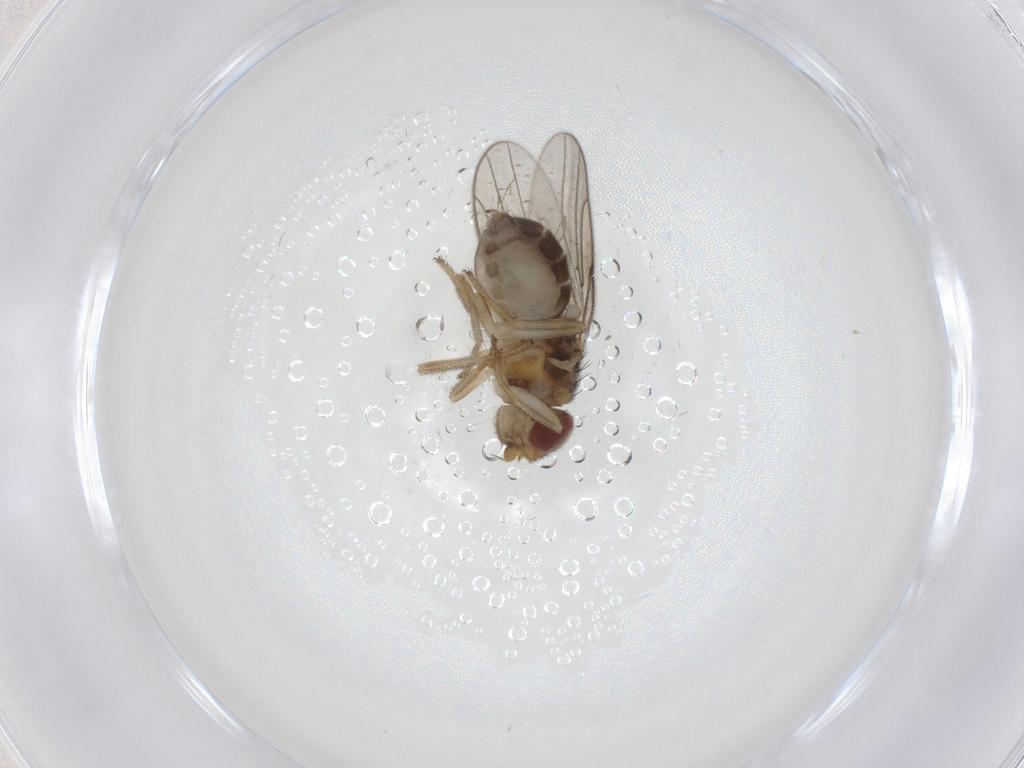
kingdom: Animalia
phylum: Arthropoda
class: Insecta
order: Diptera
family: Chloropidae
